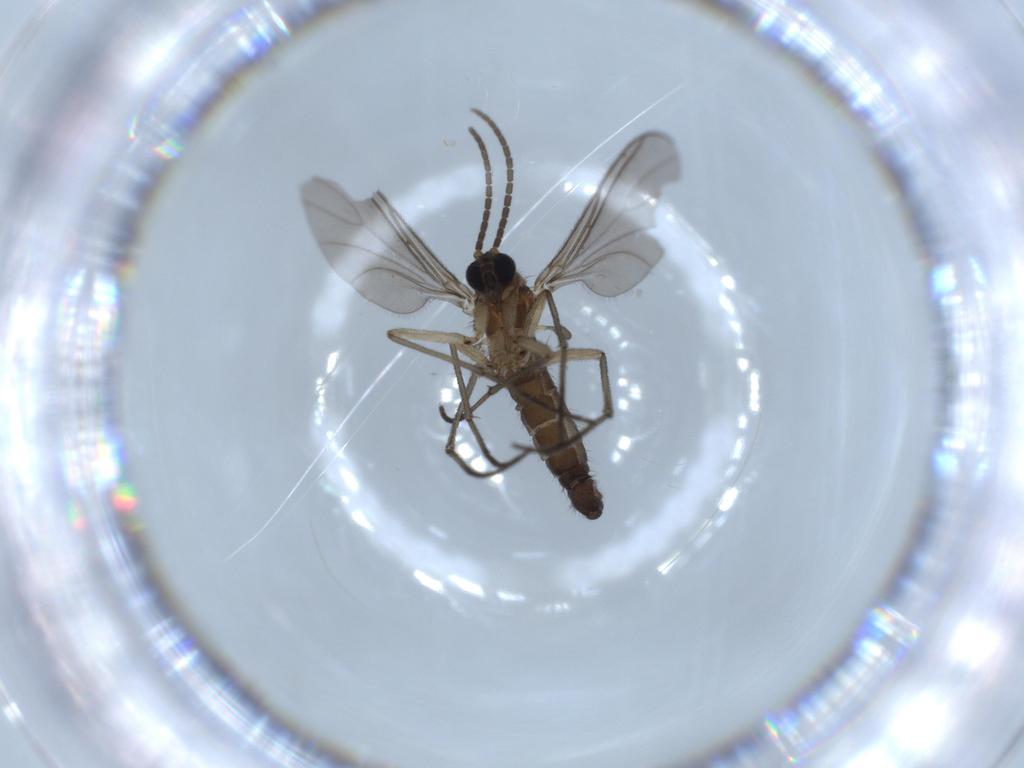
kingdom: Animalia
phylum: Arthropoda
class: Insecta
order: Diptera
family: Sciaridae
